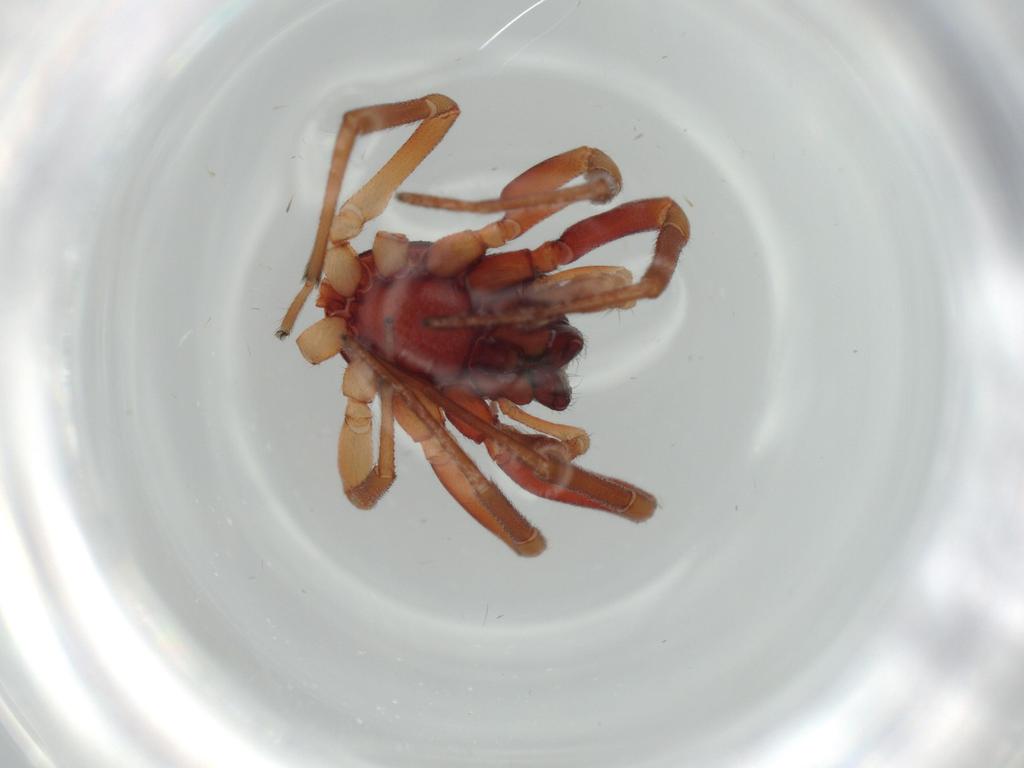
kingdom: Animalia
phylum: Arthropoda
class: Arachnida
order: Araneae
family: Trachelidae
